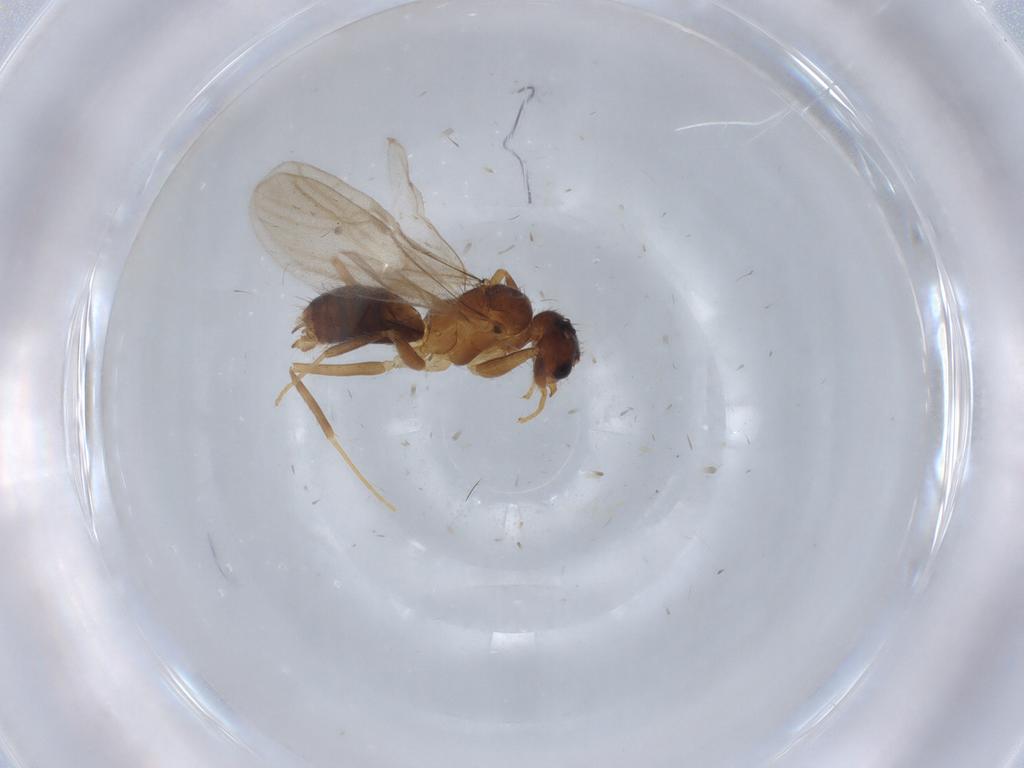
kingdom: Animalia
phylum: Arthropoda
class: Insecta
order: Hymenoptera
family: Formicidae
